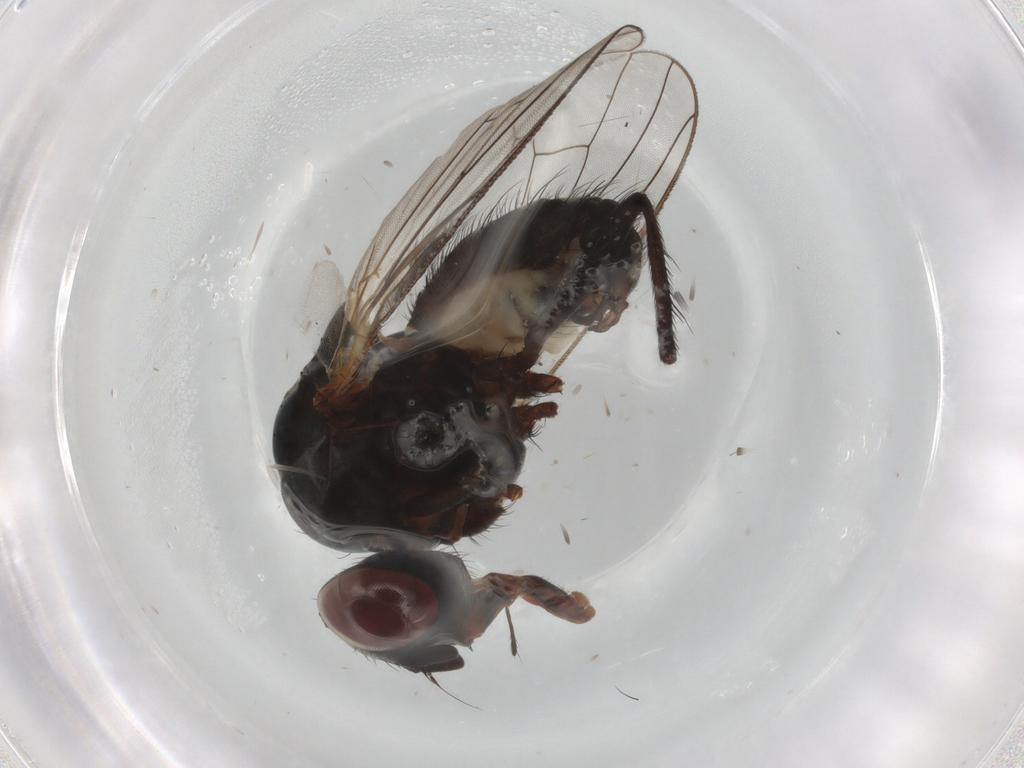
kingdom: Animalia
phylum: Arthropoda
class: Insecta
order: Diptera
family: Anthomyiidae
